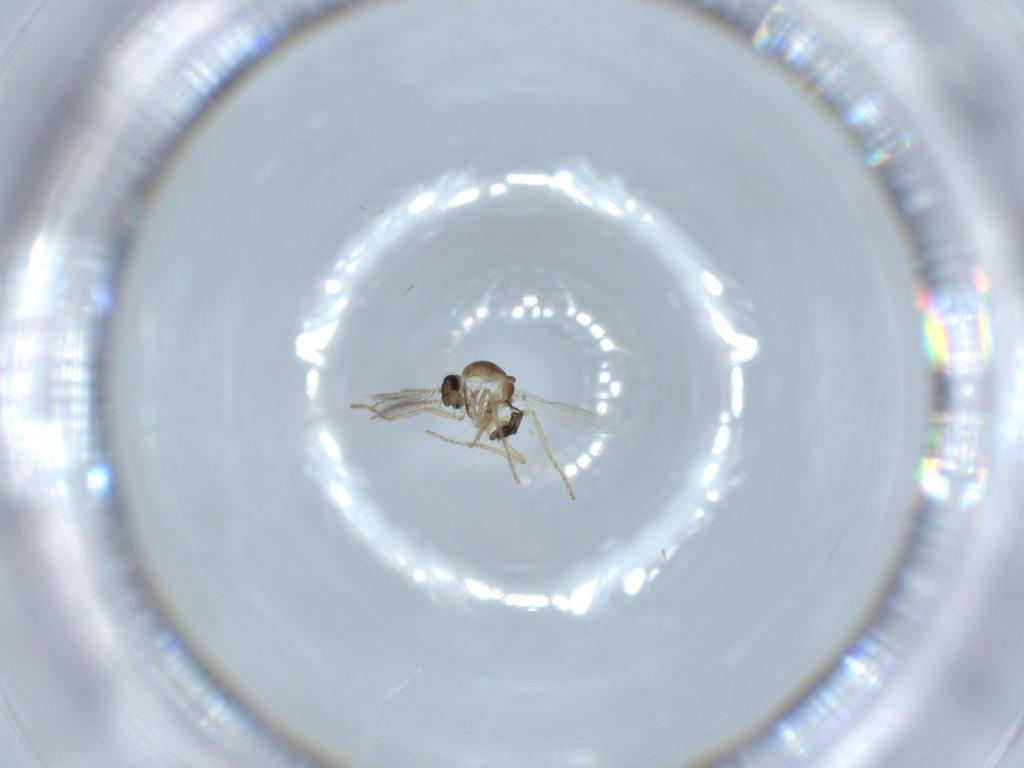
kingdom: Animalia
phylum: Arthropoda
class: Insecta
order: Diptera
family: Ceratopogonidae
